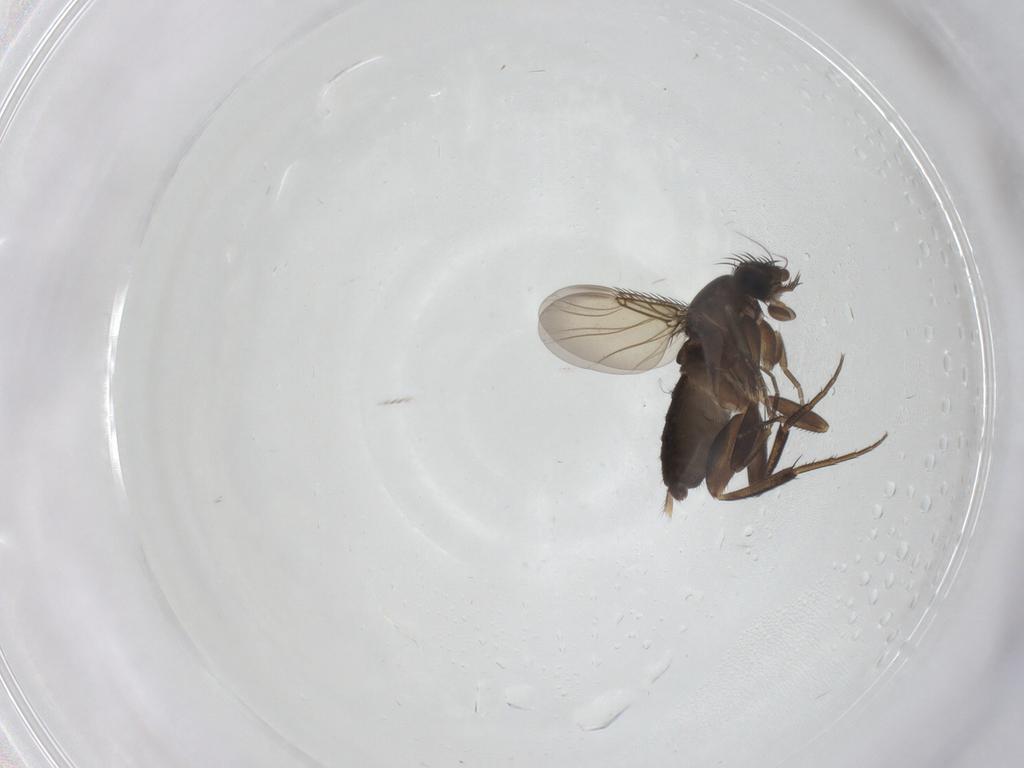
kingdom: Animalia
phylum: Arthropoda
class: Insecta
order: Diptera
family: Phoridae
